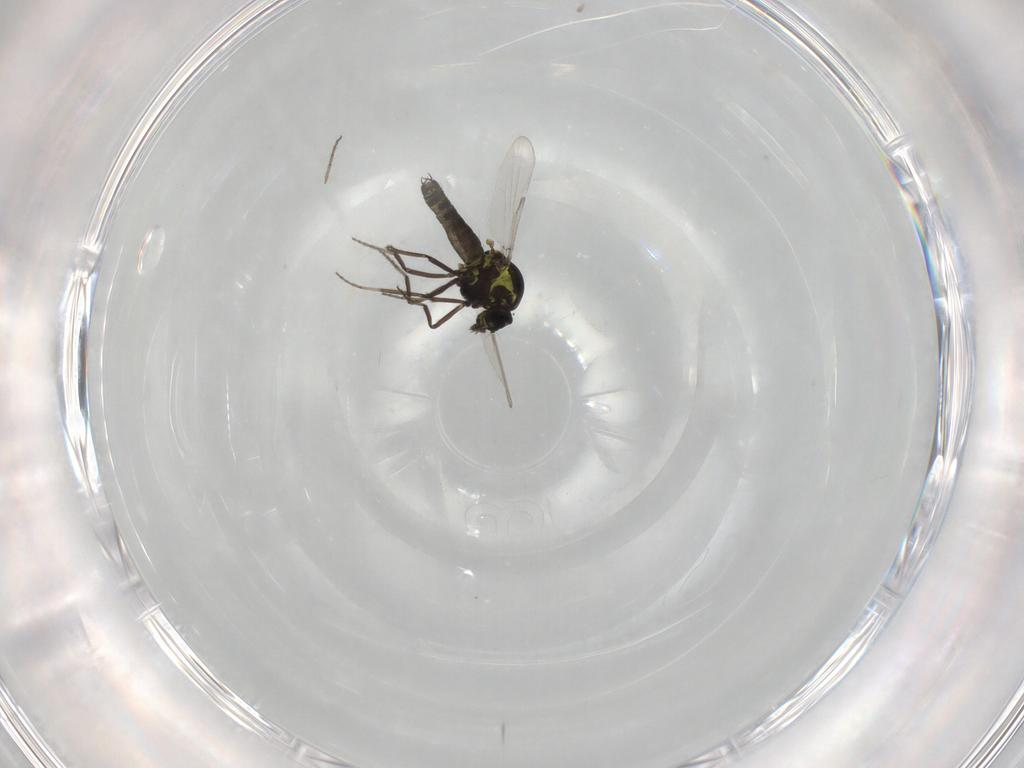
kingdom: Animalia
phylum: Arthropoda
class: Insecta
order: Diptera
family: Ceratopogonidae
